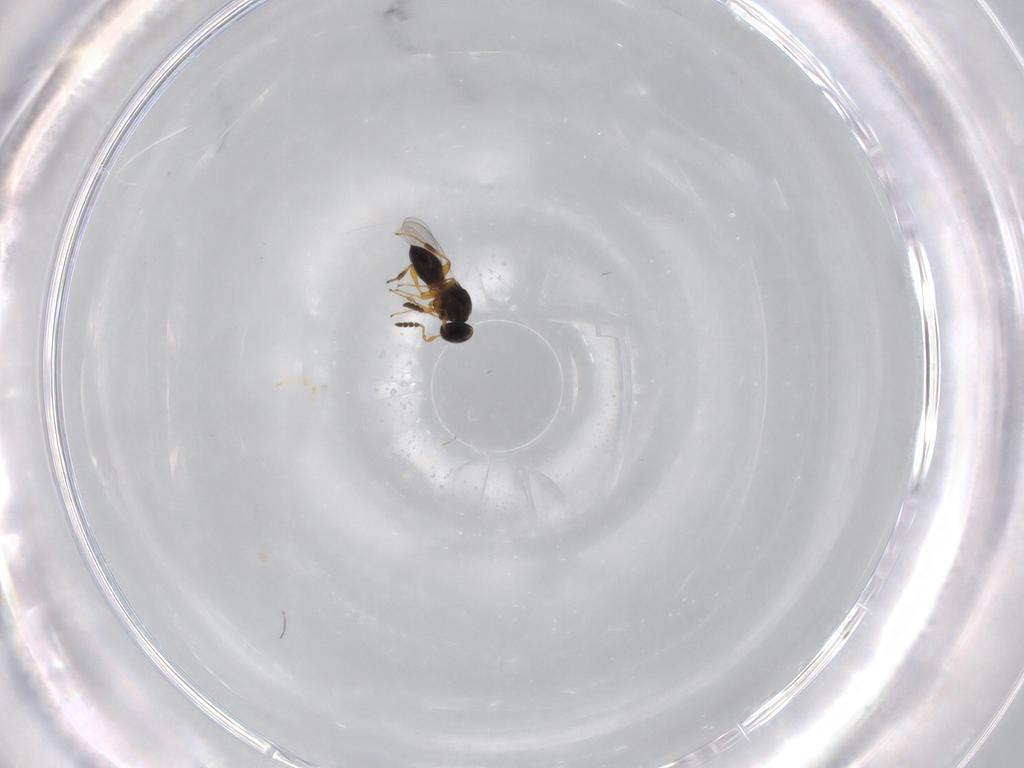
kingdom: Animalia
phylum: Arthropoda
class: Insecta
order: Hymenoptera
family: Platygastridae
